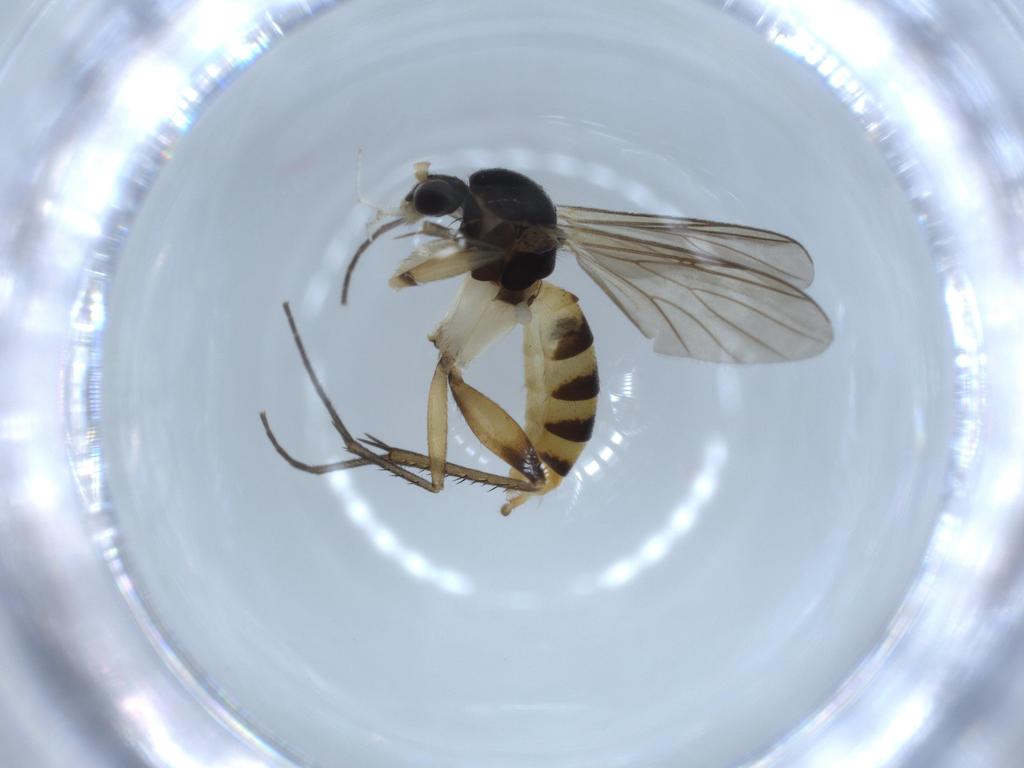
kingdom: Animalia
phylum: Arthropoda
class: Insecta
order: Diptera
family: Mycetophilidae
